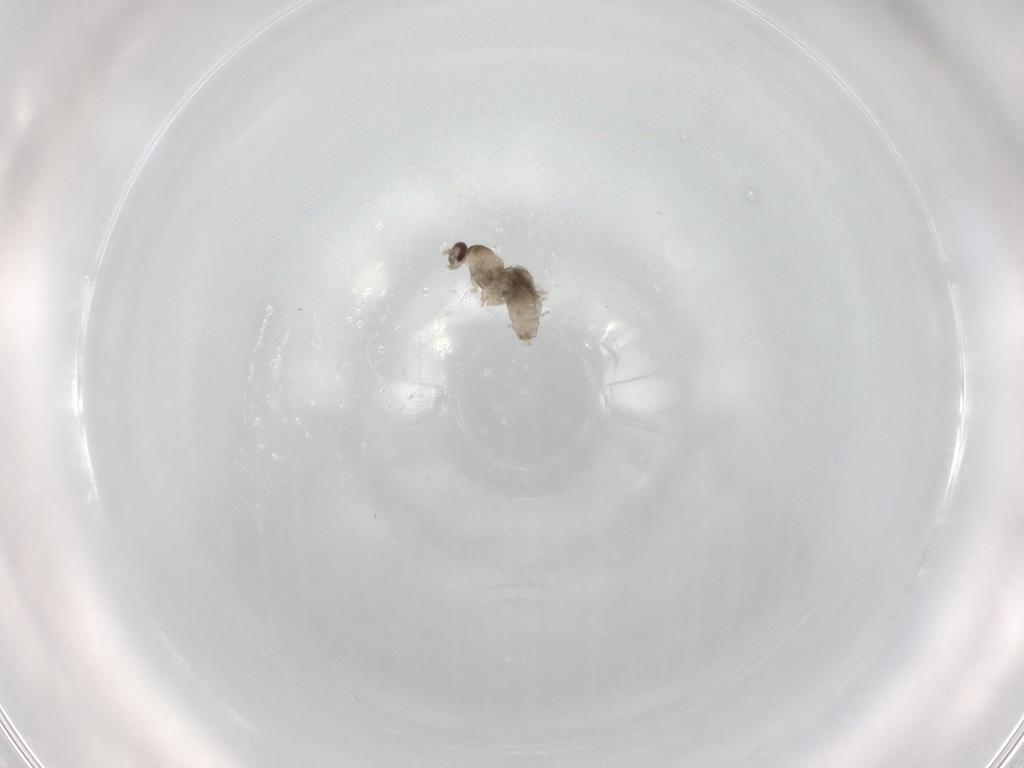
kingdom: Animalia
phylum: Arthropoda
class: Insecta
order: Diptera
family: Cecidomyiidae
